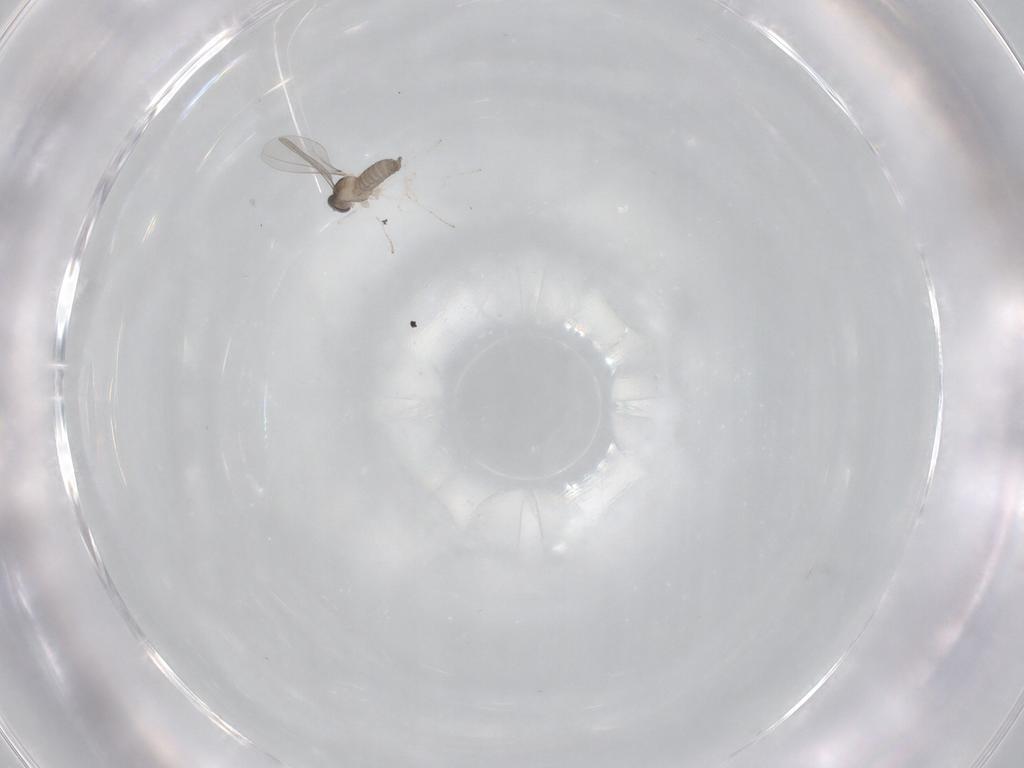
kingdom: Animalia
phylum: Arthropoda
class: Insecta
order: Diptera
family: Cecidomyiidae
